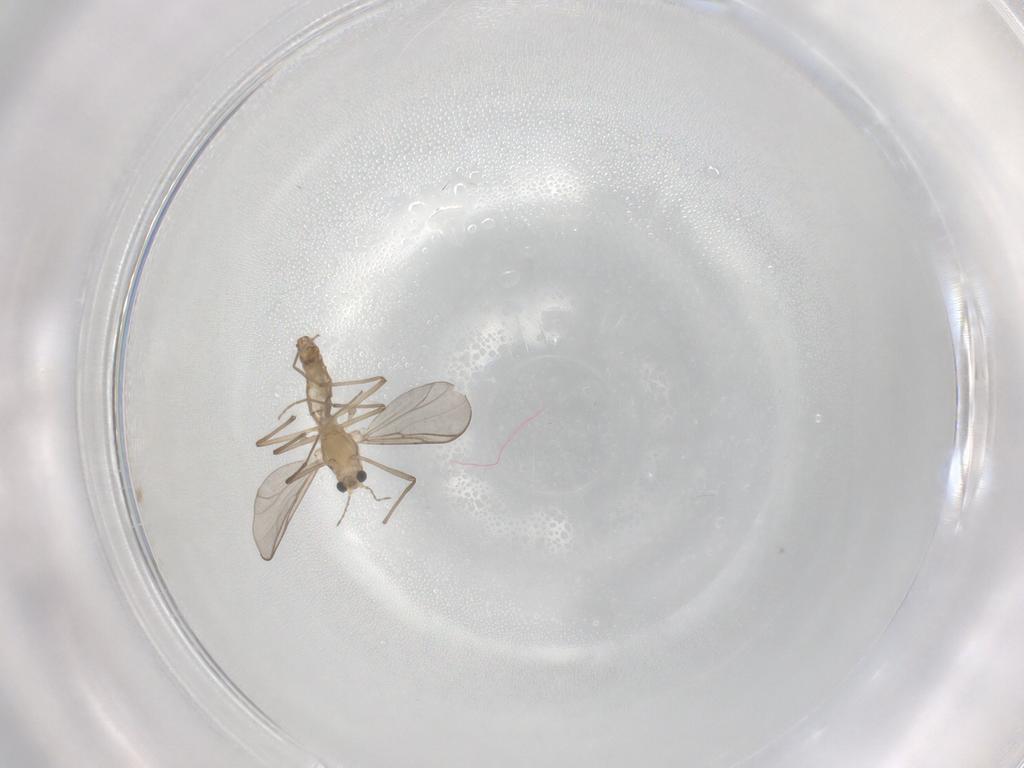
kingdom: Animalia
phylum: Arthropoda
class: Insecta
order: Diptera
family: Chironomidae
